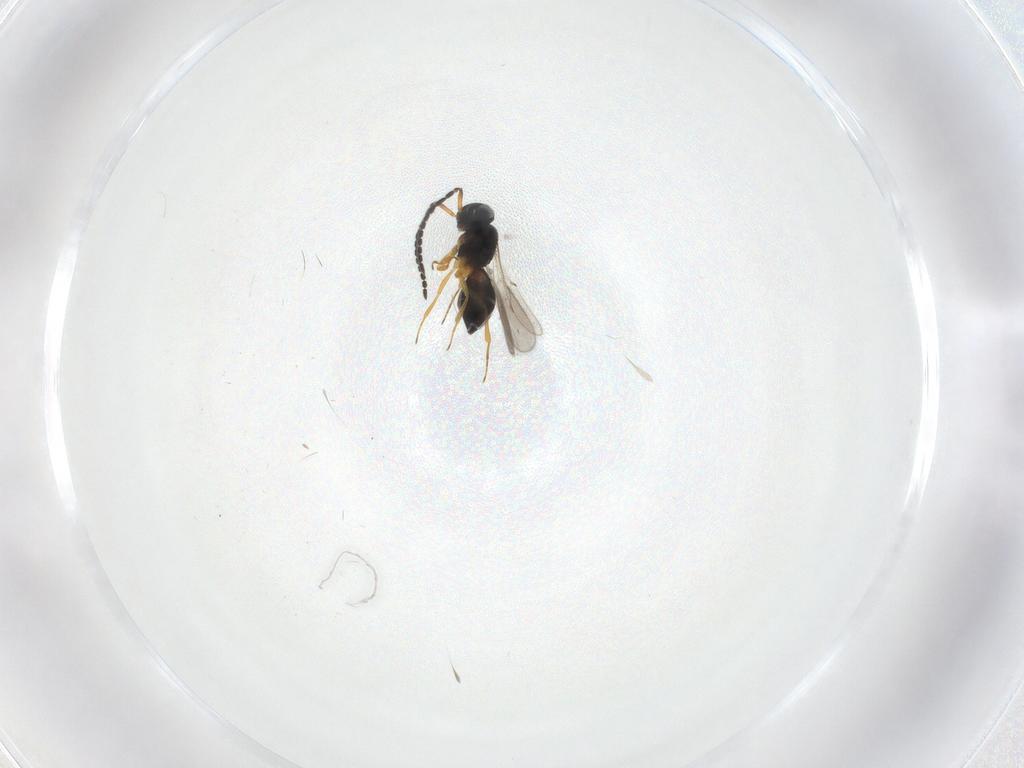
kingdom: Animalia
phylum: Arthropoda
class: Insecta
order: Hymenoptera
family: Scelionidae
